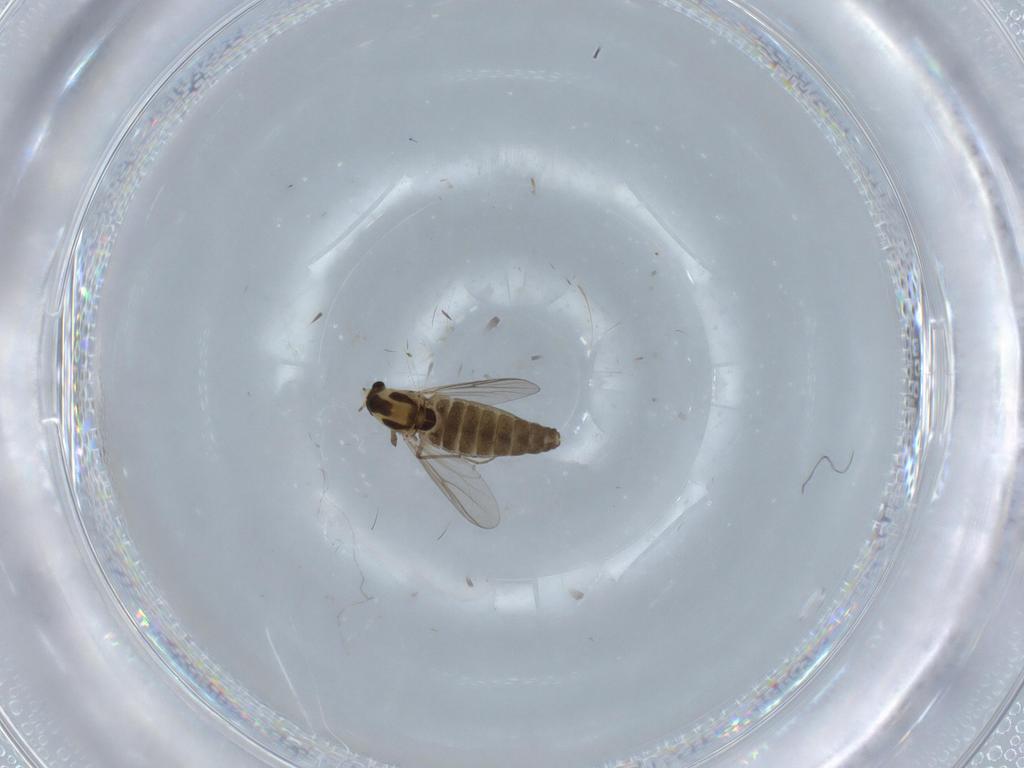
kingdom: Animalia
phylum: Arthropoda
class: Insecta
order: Diptera
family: Chironomidae
